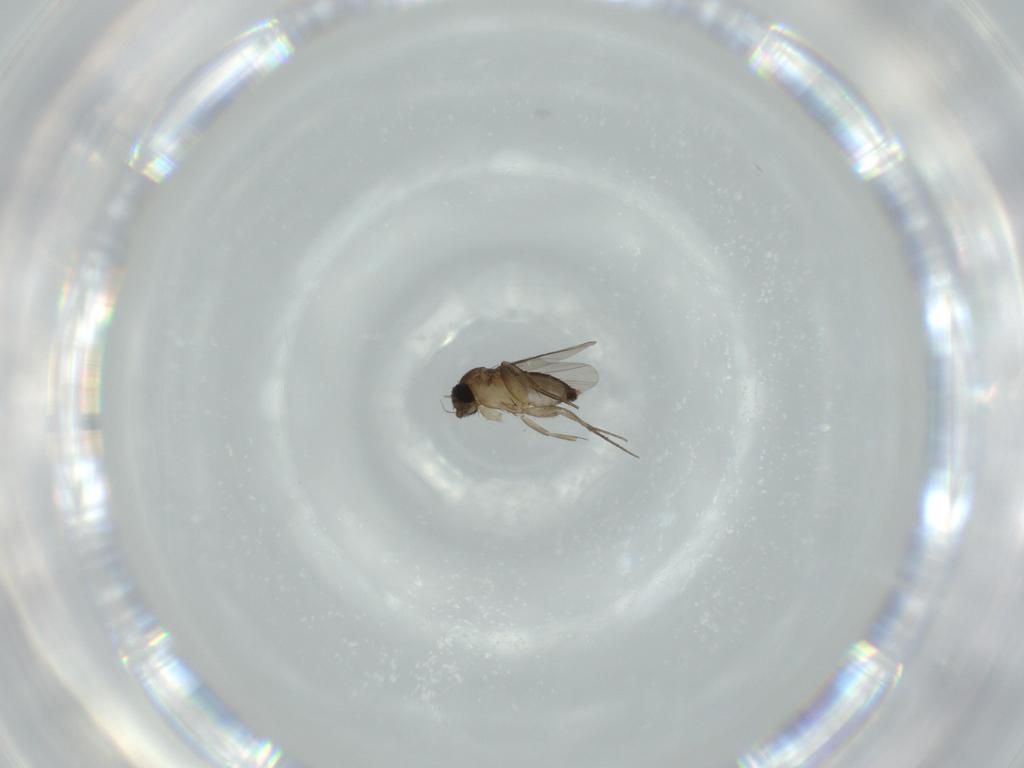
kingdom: Animalia
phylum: Arthropoda
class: Insecta
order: Diptera
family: Phoridae
